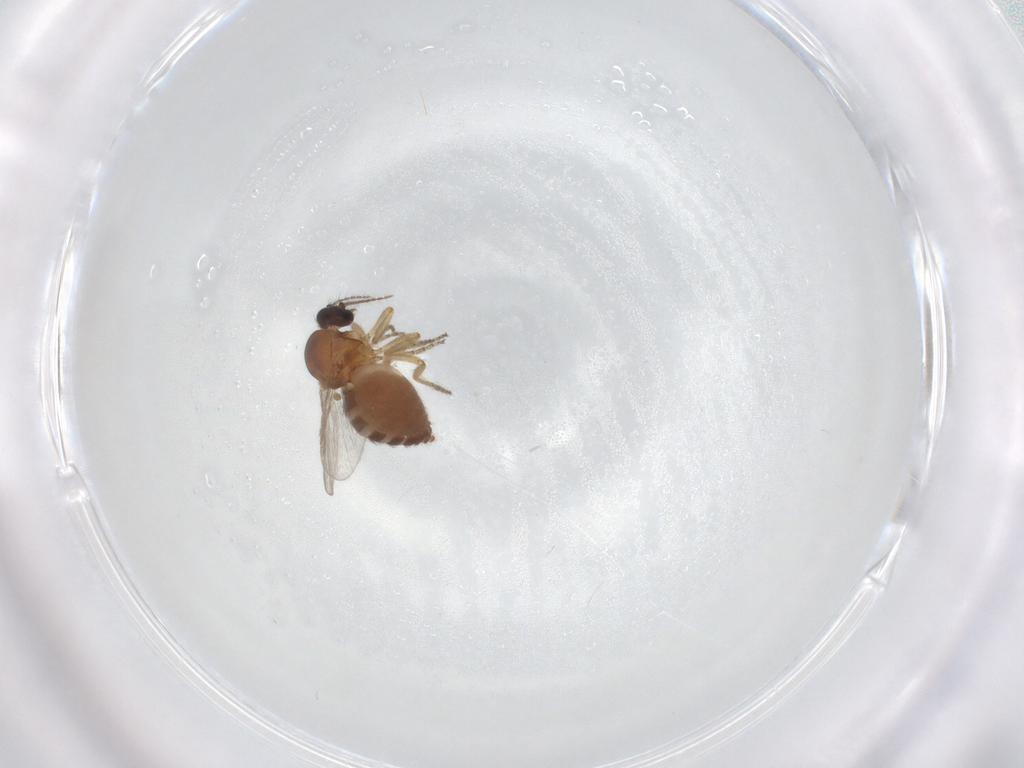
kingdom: Animalia
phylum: Arthropoda
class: Insecta
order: Diptera
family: Ceratopogonidae
